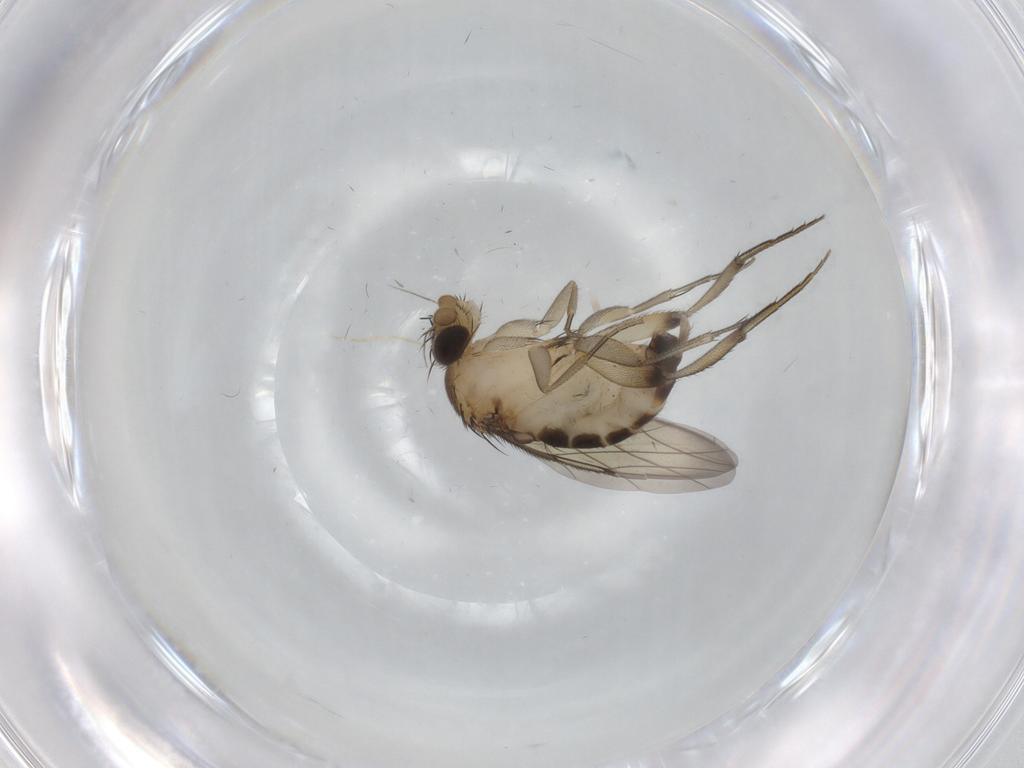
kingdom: Animalia
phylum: Arthropoda
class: Insecta
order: Diptera
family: Phoridae
